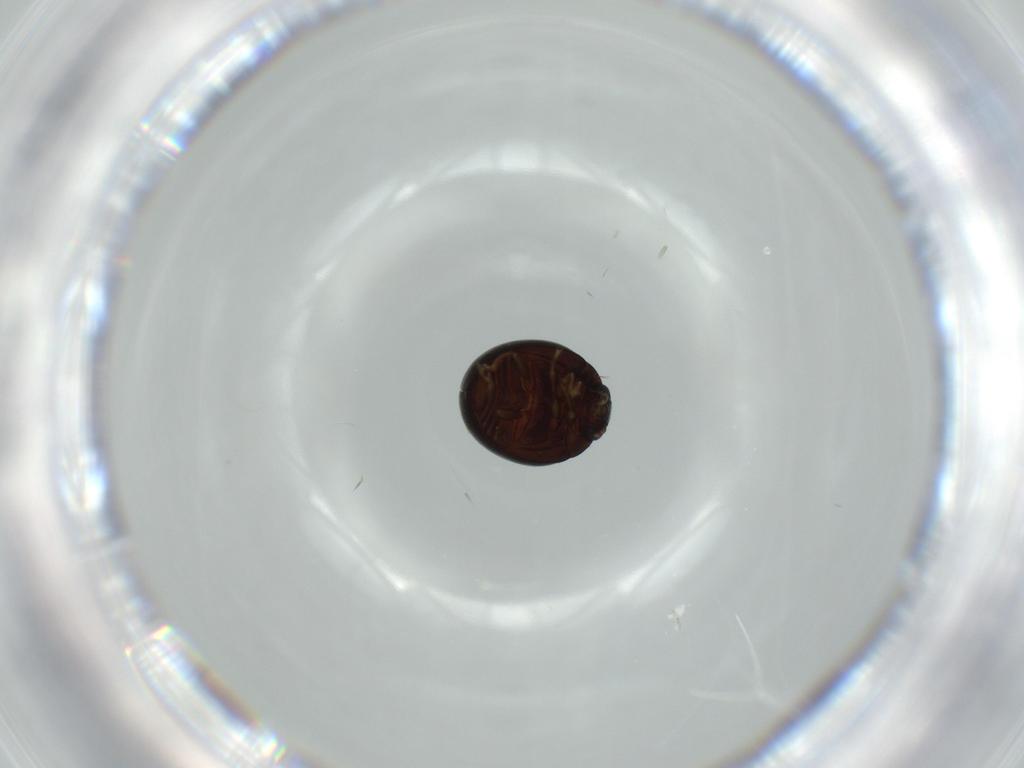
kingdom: Animalia
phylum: Arthropoda
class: Insecta
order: Coleoptera
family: Anamorphidae
